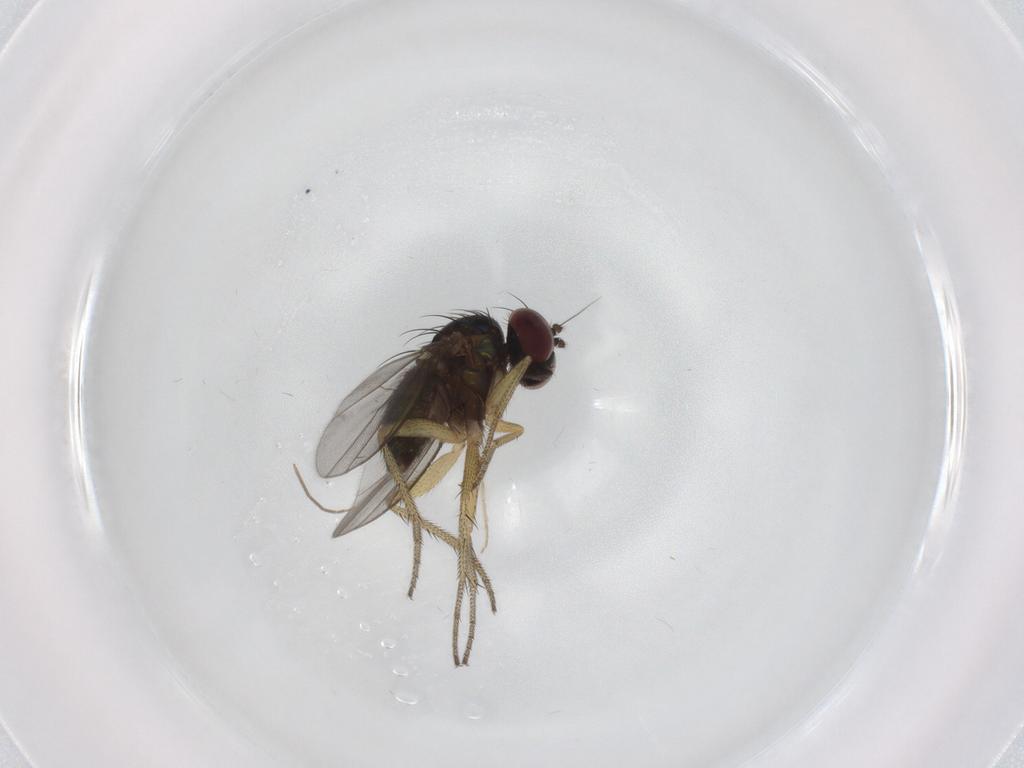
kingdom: Animalia
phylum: Arthropoda
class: Insecta
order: Diptera
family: Chironomidae
